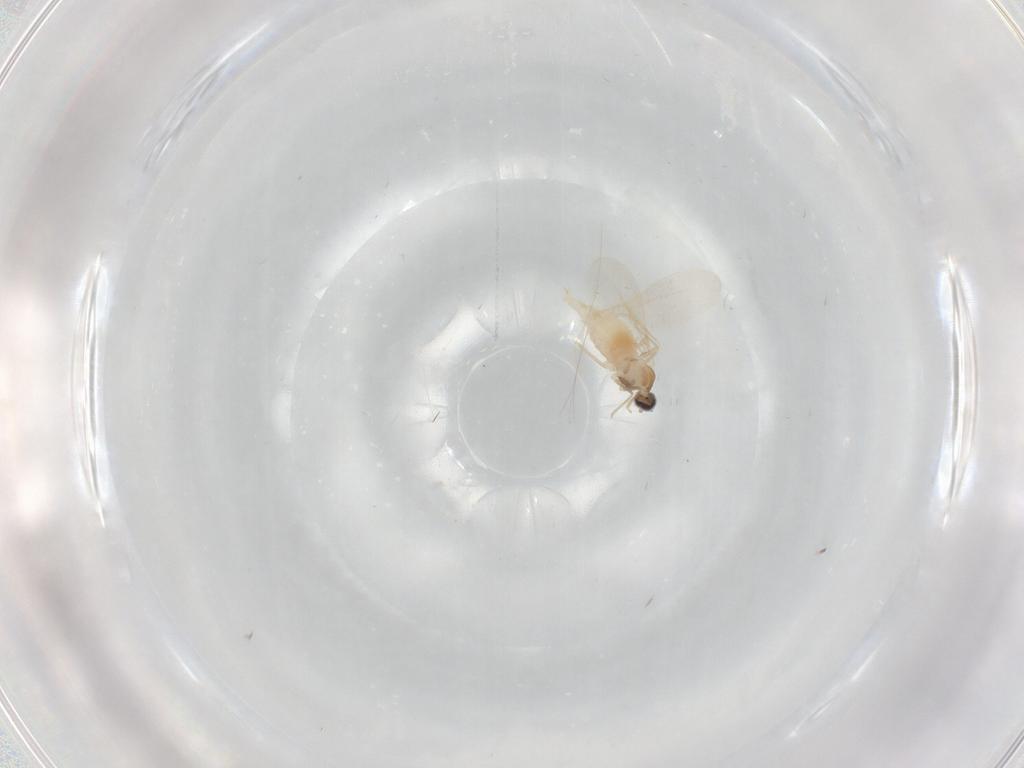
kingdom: Animalia
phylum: Arthropoda
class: Insecta
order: Diptera
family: Cecidomyiidae
